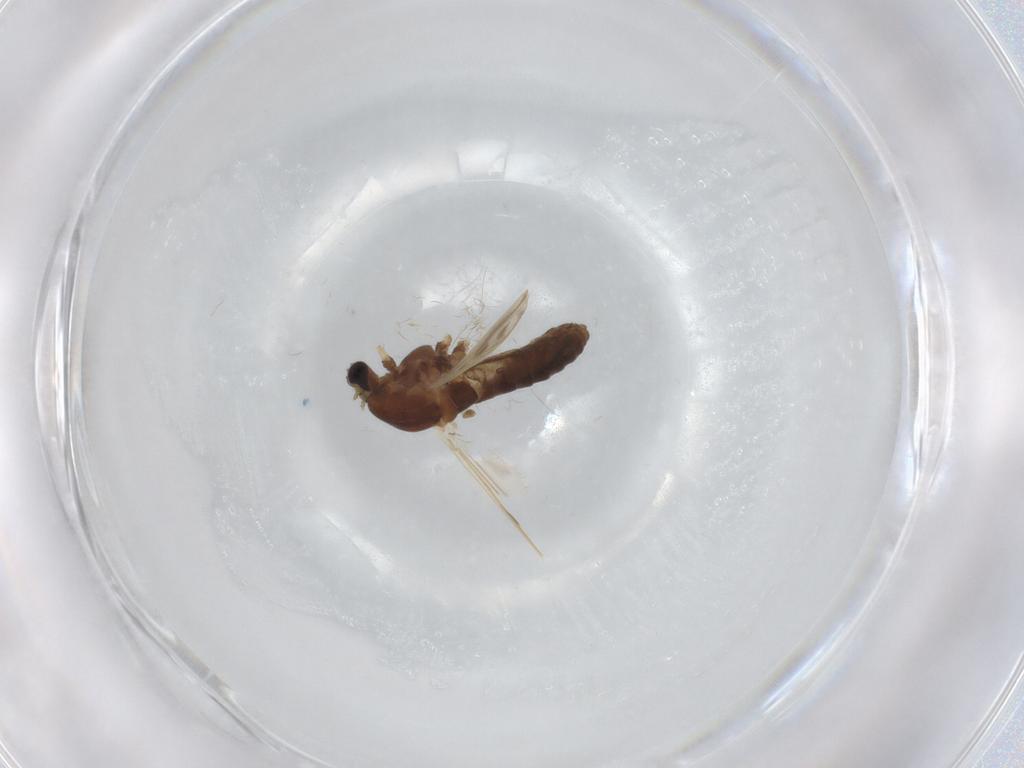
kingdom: Animalia
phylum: Arthropoda
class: Insecta
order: Diptera
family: Chironomidae
